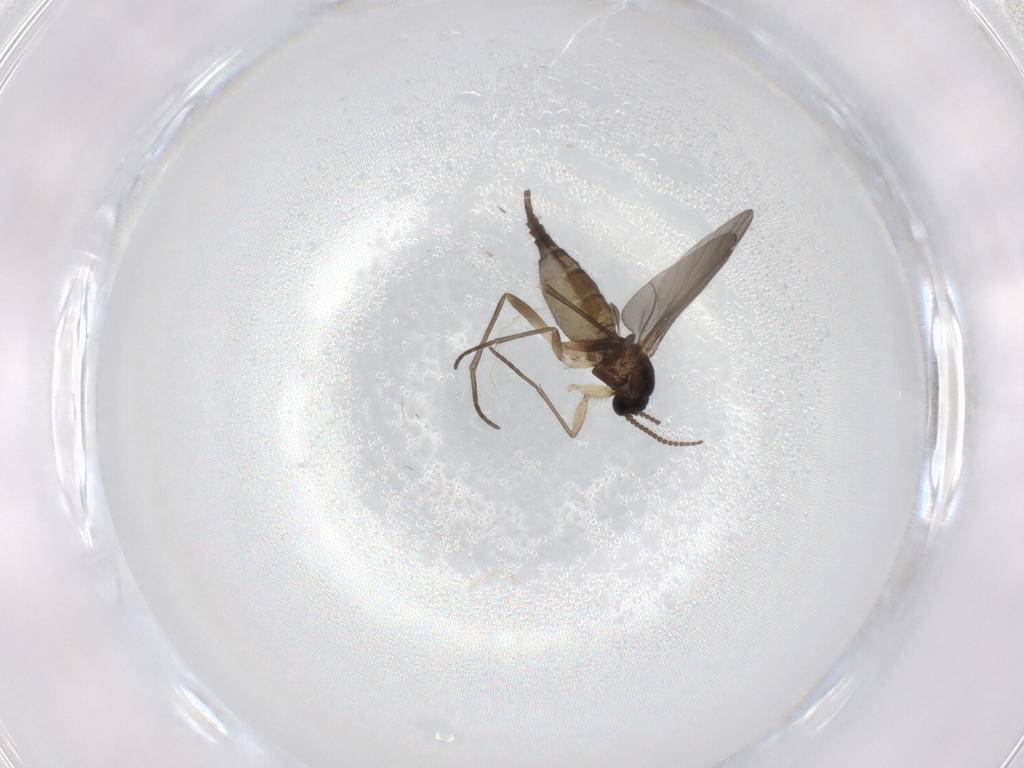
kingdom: Animalia
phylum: Arthropoda
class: Insecta
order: Diptera
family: Sciaridae
